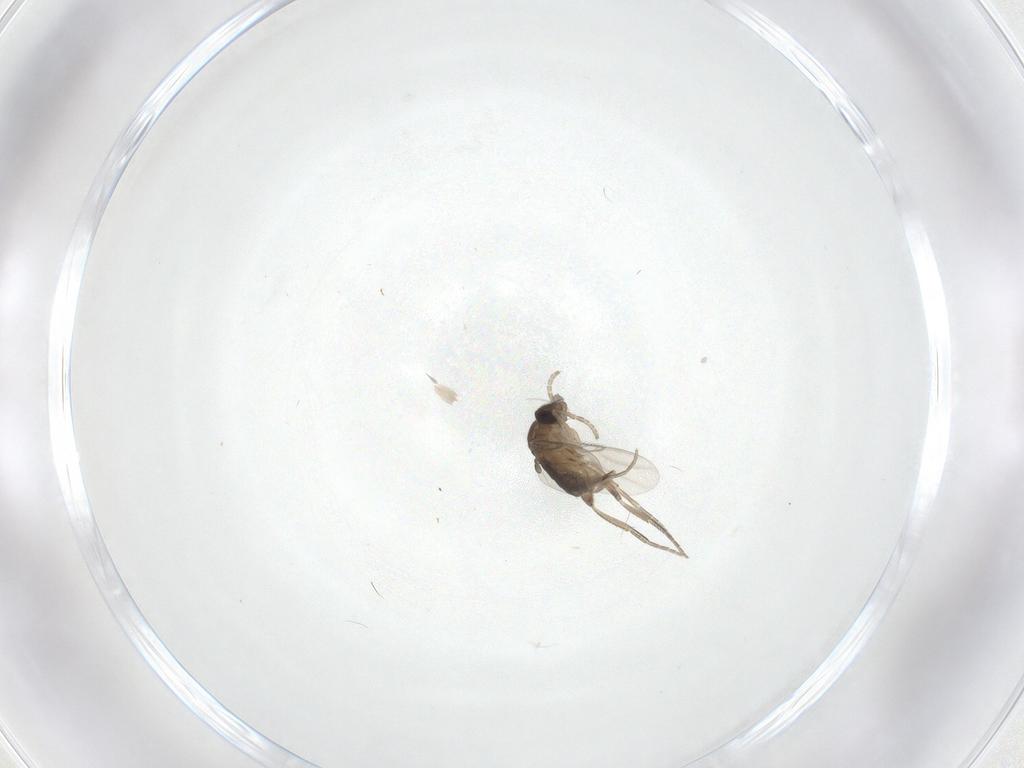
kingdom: Animalia
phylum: Arthropoda
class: Insecta
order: Diptera
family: Phoridae
